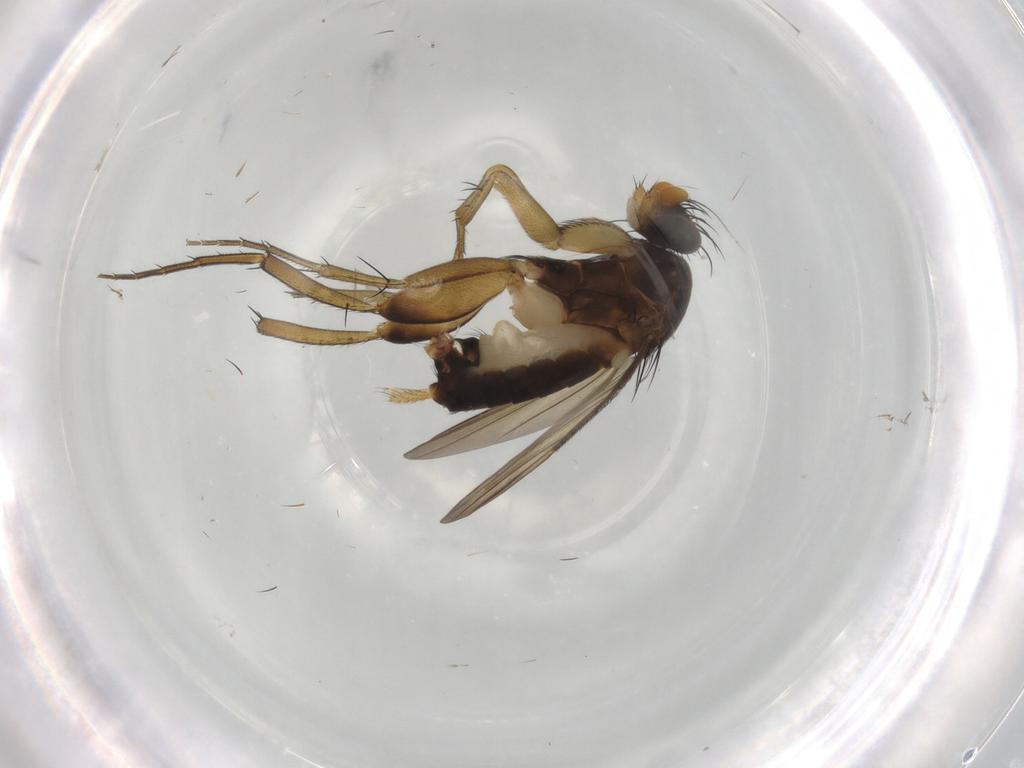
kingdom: Animalia
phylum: Arthropoda
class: Insecta
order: Diptera
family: Phoridae
